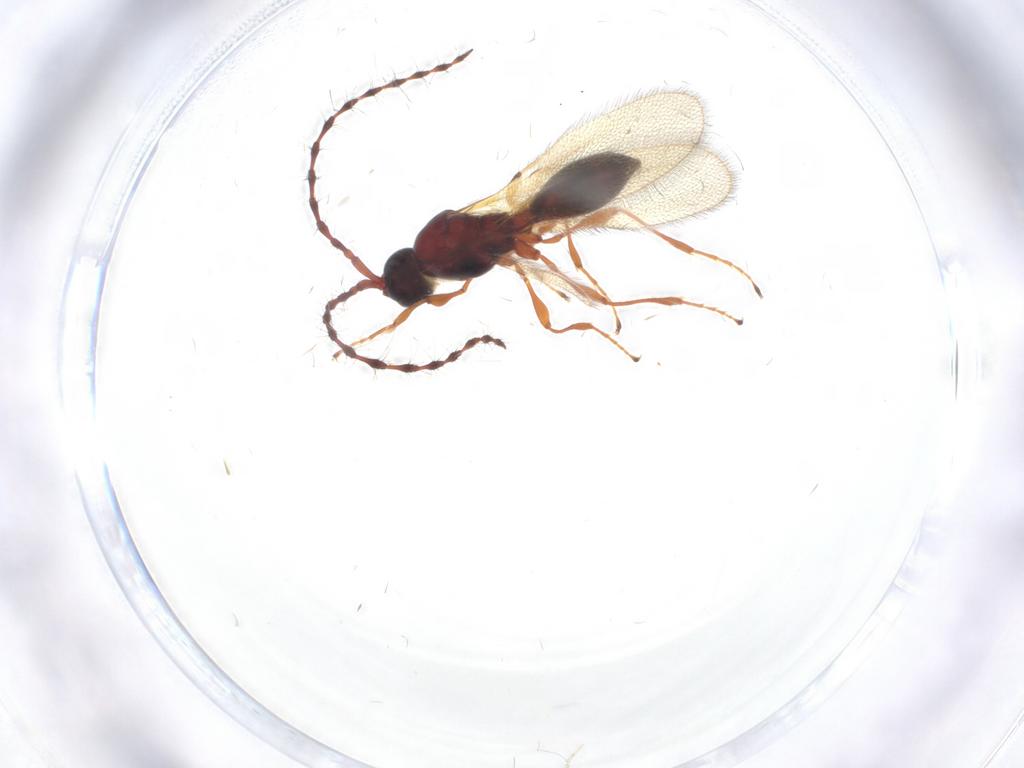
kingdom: Animalia
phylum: Arthropoda
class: Insecta
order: Hymenoptera
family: Diapriidae
